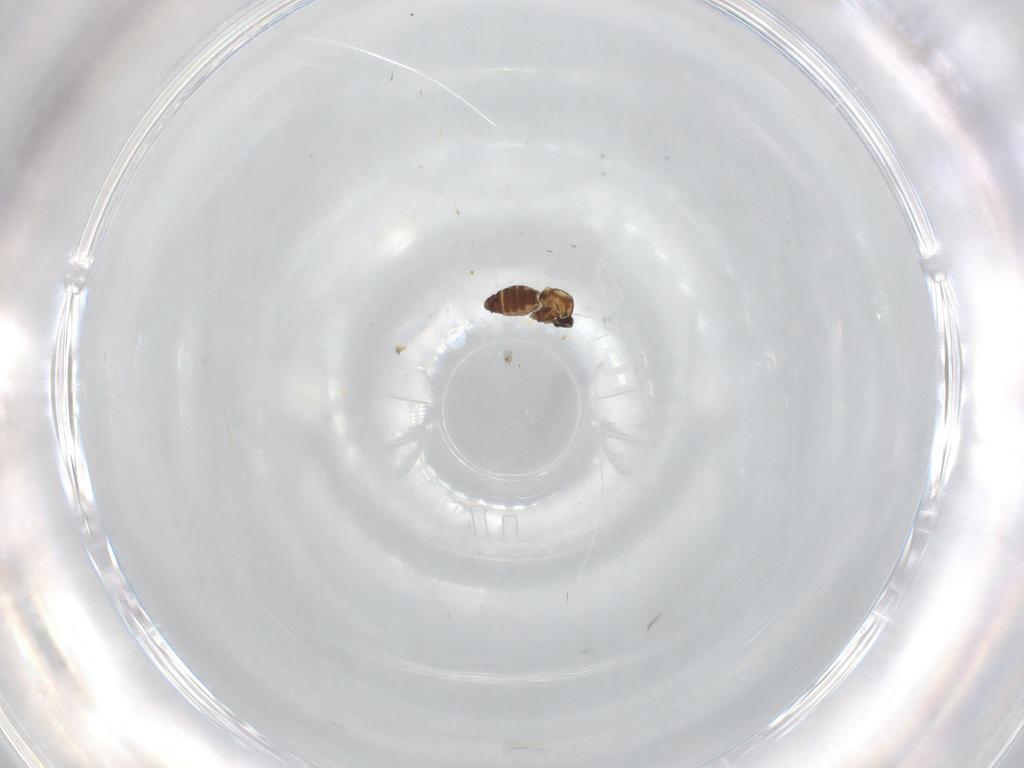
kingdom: Animalia
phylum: Arthropoda
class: Insecta
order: Diptera
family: Ceratopogonidae
